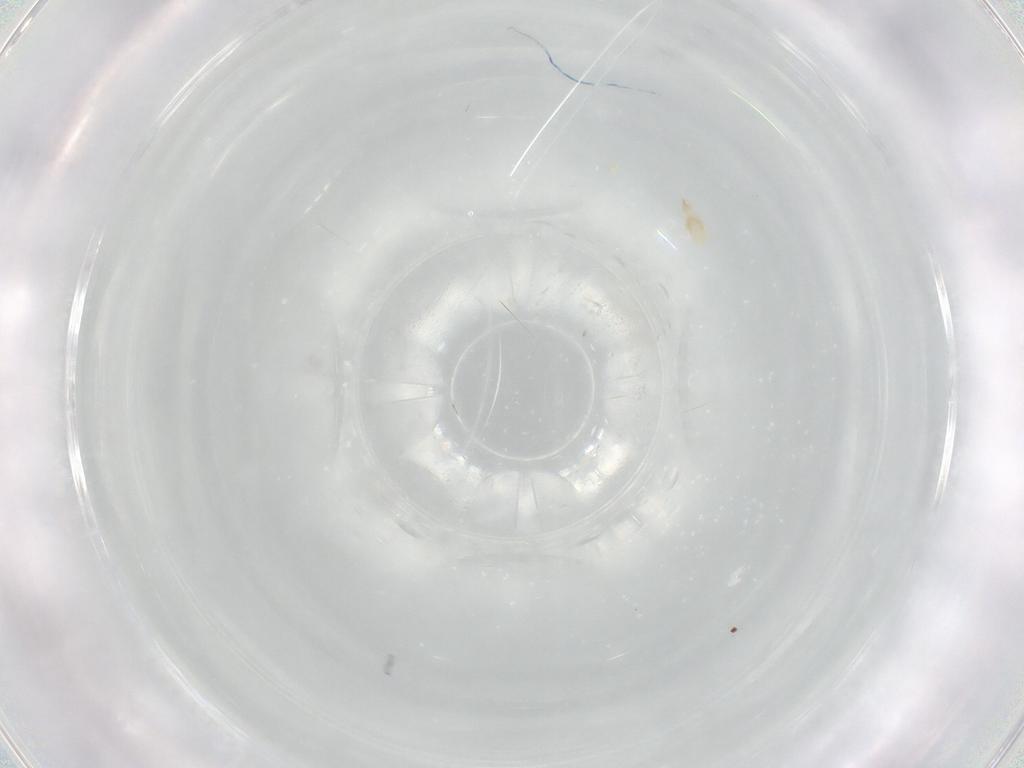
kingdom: Animalia
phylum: Arthropoda
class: Arachnida
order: Trombidiformes
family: Cunaxidae
